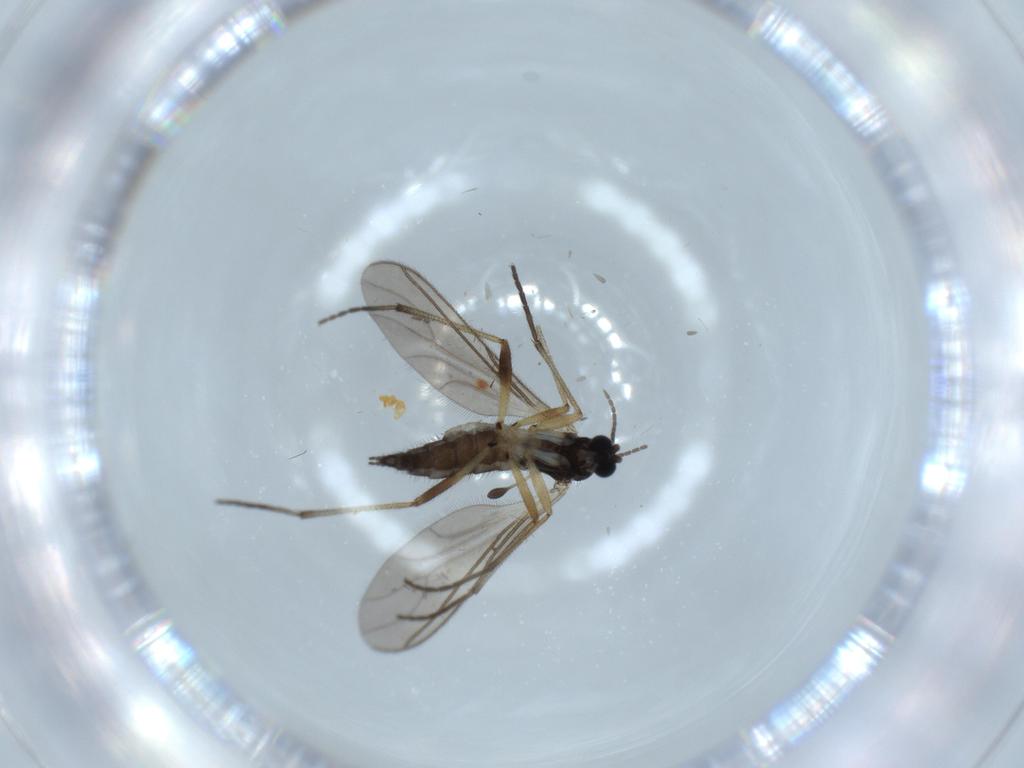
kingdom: Animalia
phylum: Arthropoda
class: Insecta
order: Diptera
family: Sciaridae
